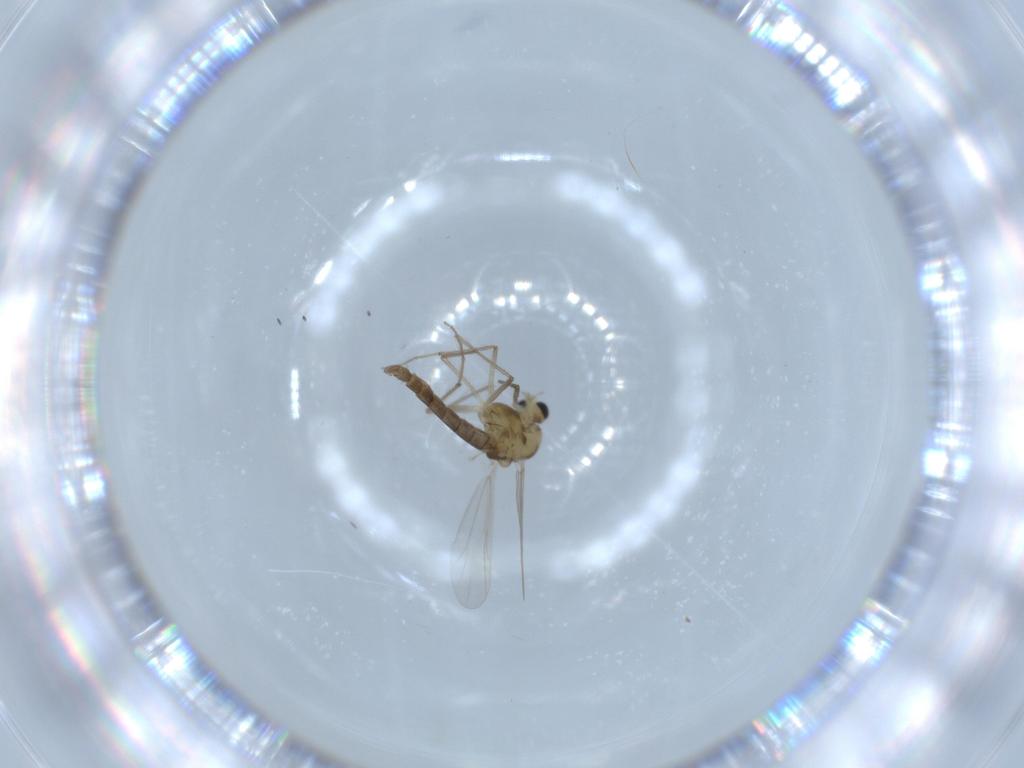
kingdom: Animalia
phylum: Arthropoda
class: Insecta
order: Diptera
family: Chironomidae
